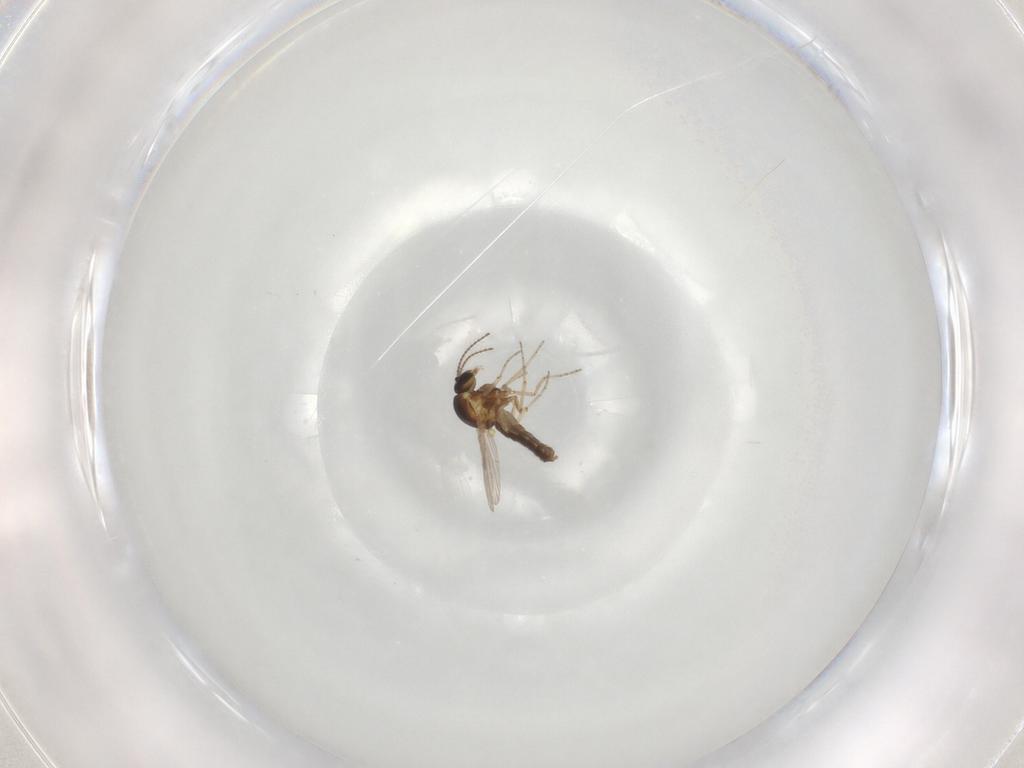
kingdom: Animalia
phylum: Arthropoda
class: Insecta
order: Diptera
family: Ceratopogonidae
